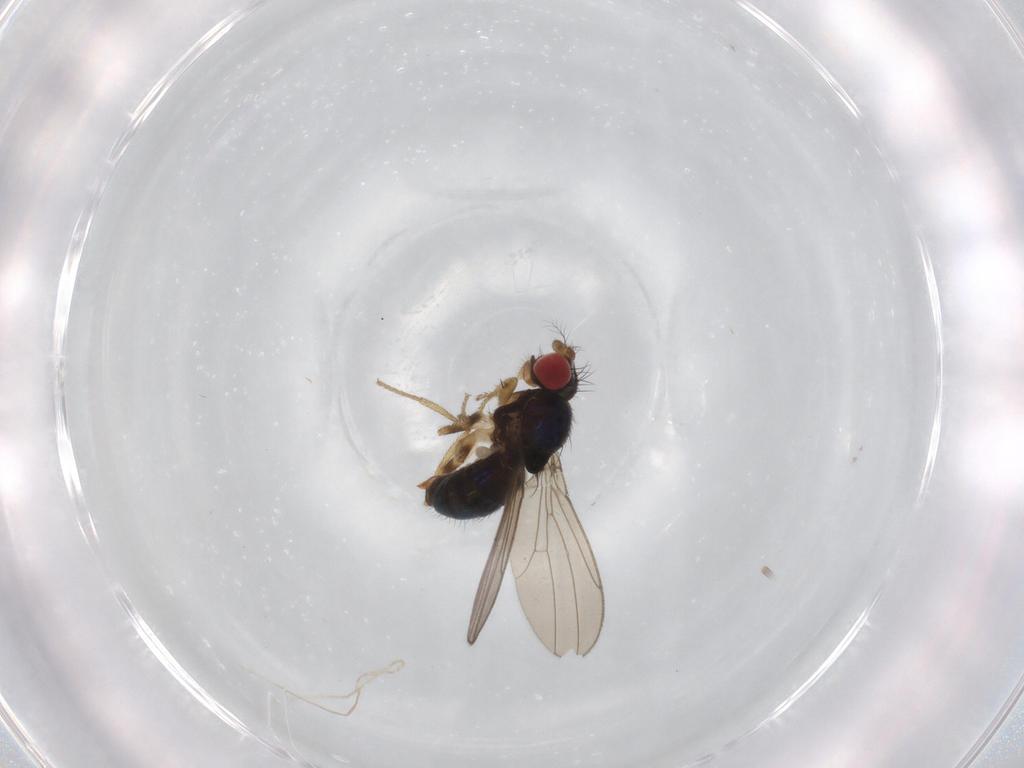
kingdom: Animalia
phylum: Arthropoda
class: Insecta
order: Diptera
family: Drosophilidae
